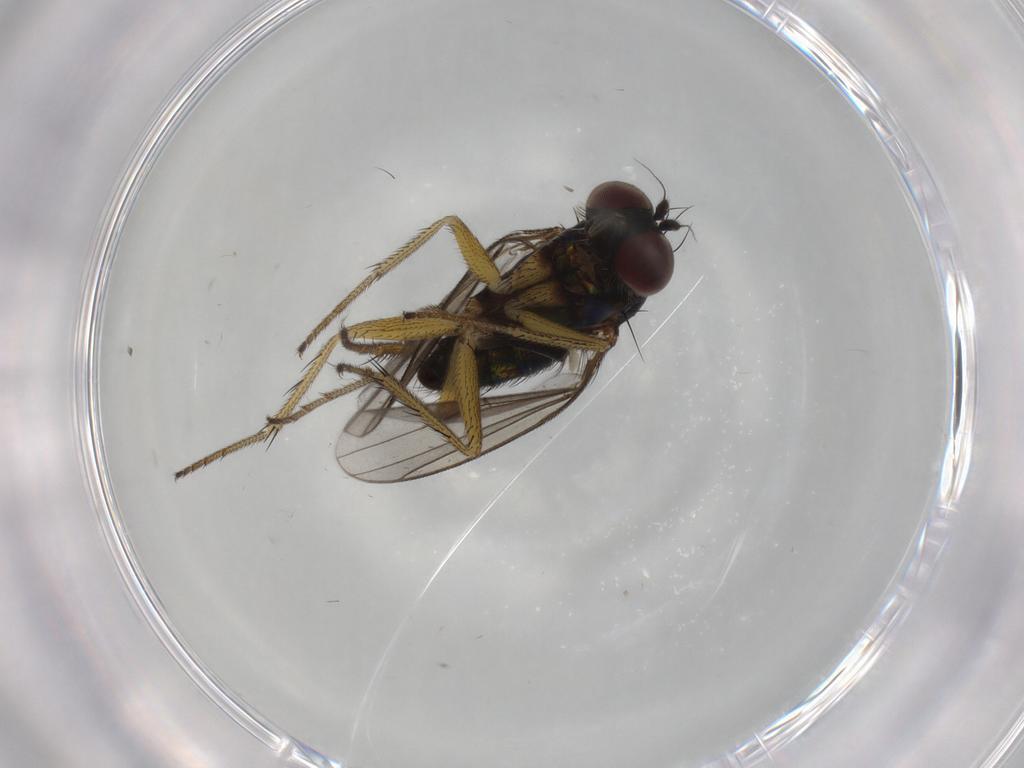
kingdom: Animalia
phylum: Arthropoda
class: Insecta
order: Diptera
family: Dolichopodidae
